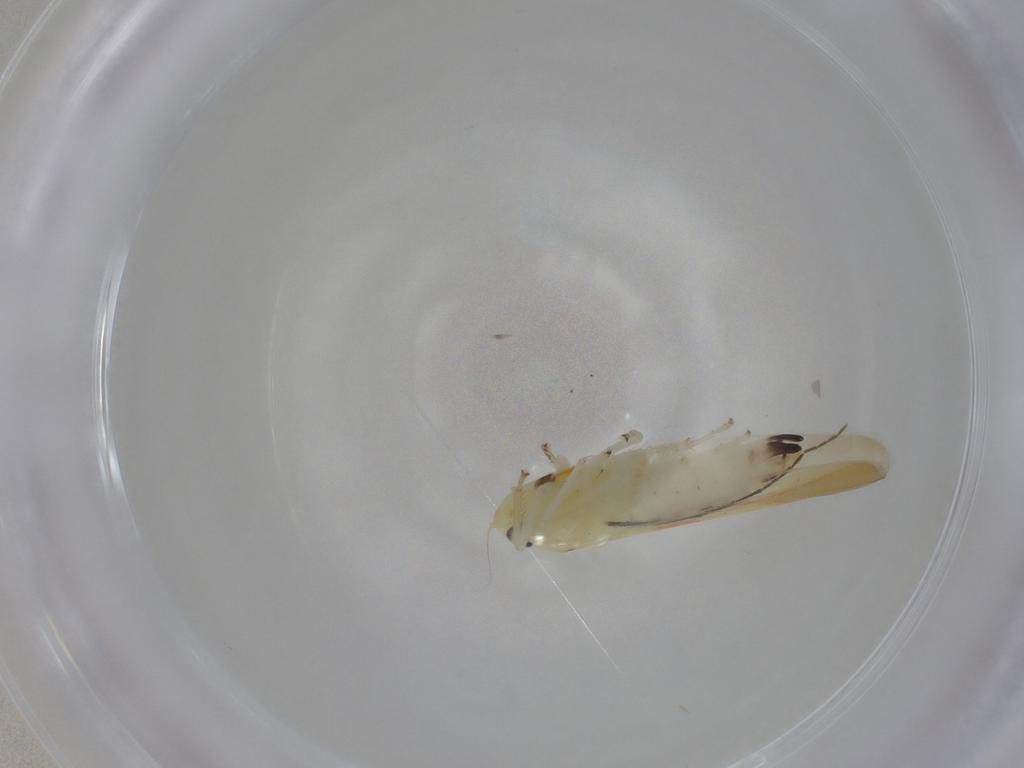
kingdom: Animalia
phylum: Arthropoda
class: Insecta
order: Hemiptera
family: Cicadellidae
